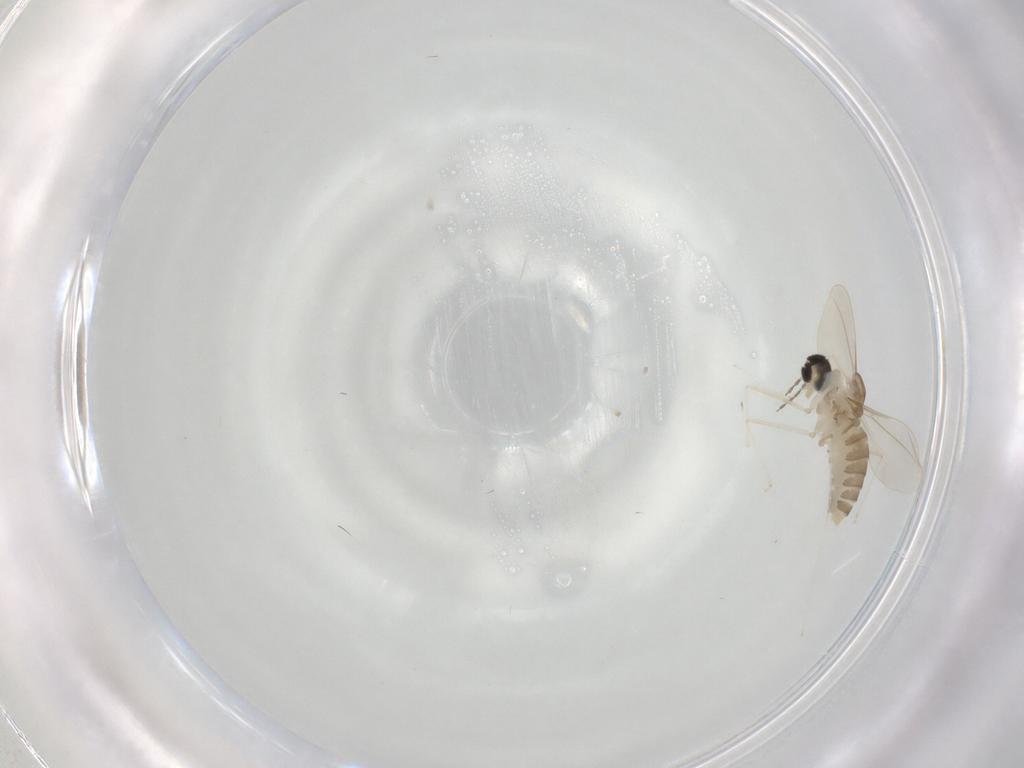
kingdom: Animalia
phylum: Arthropoda
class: Insecta
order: Diptera
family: Cecidomyiidae
